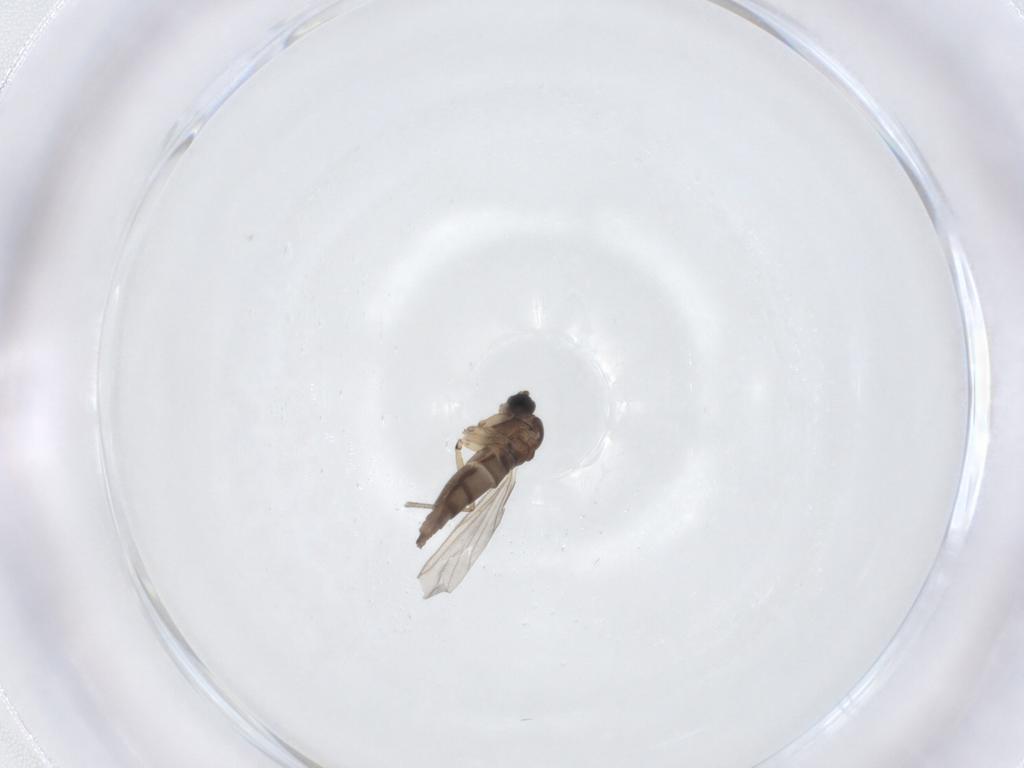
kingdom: Animalia
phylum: Arthropoda
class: Insecta
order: Diptera
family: Sciaridae
